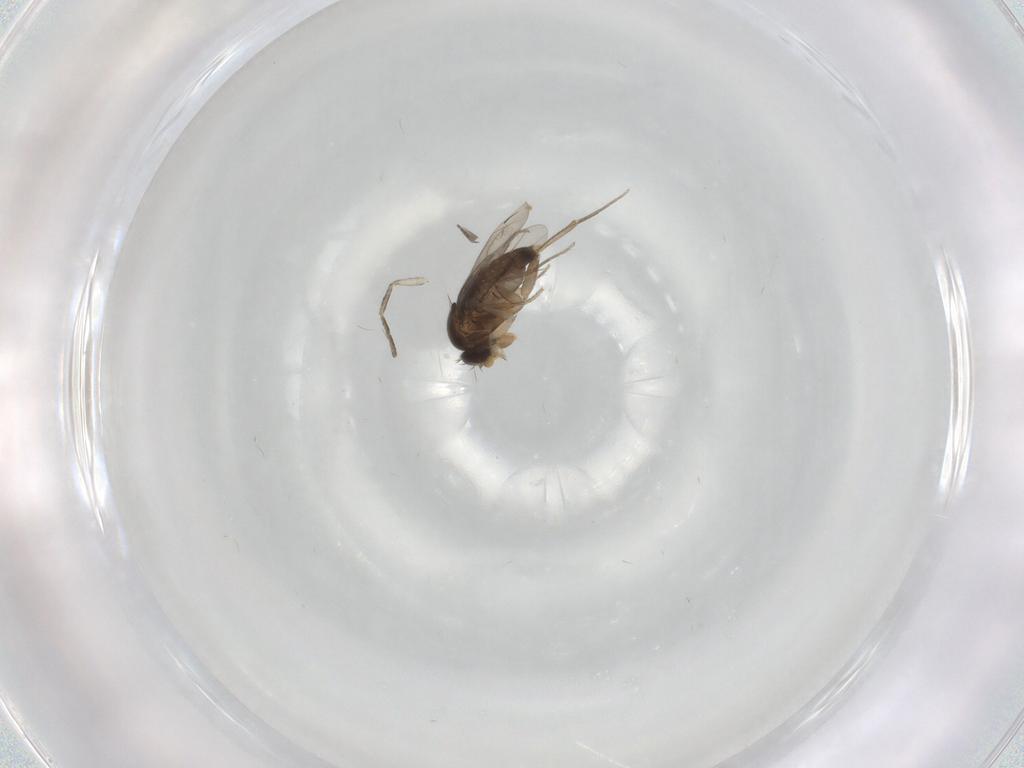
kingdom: Animalia
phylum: Arthropoda
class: Insecta
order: Diptera
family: Phoridae
